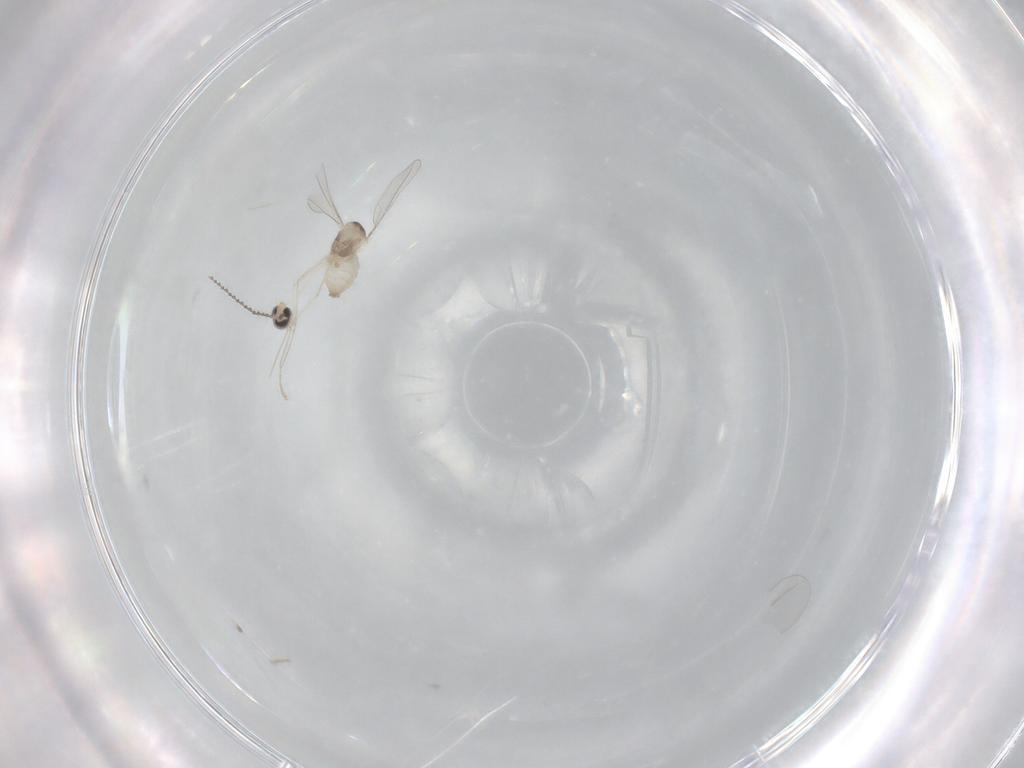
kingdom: Animalia
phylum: Arthropoda
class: Insecta
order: Diptera
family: Cecidomyiidae
